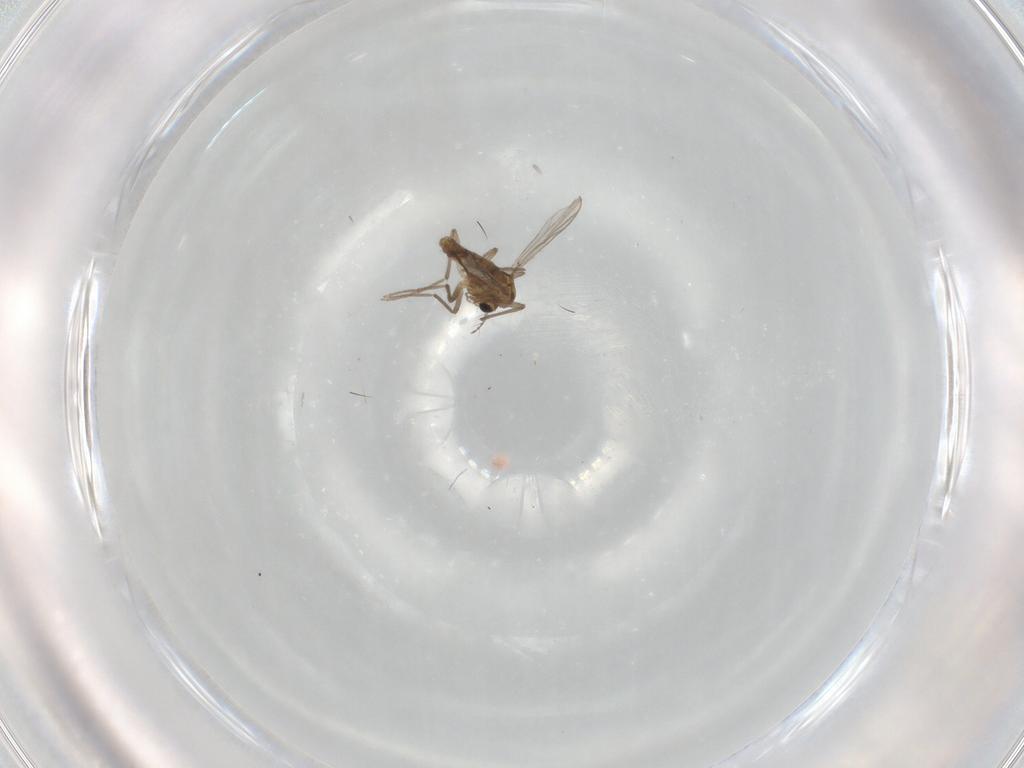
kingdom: Animalia
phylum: Arthropoda
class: Insecta
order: Diptera
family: Chironomidae
